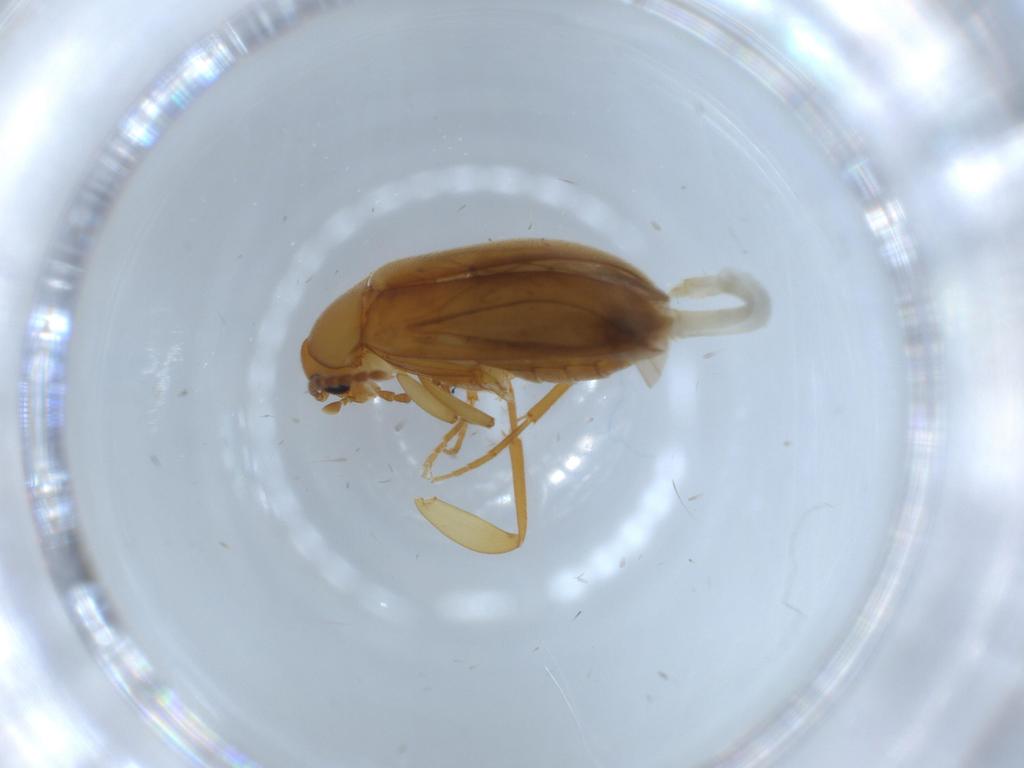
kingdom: Animalia
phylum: Arthropoda
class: Insecta
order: Coleoptera
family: Scraptiidae
